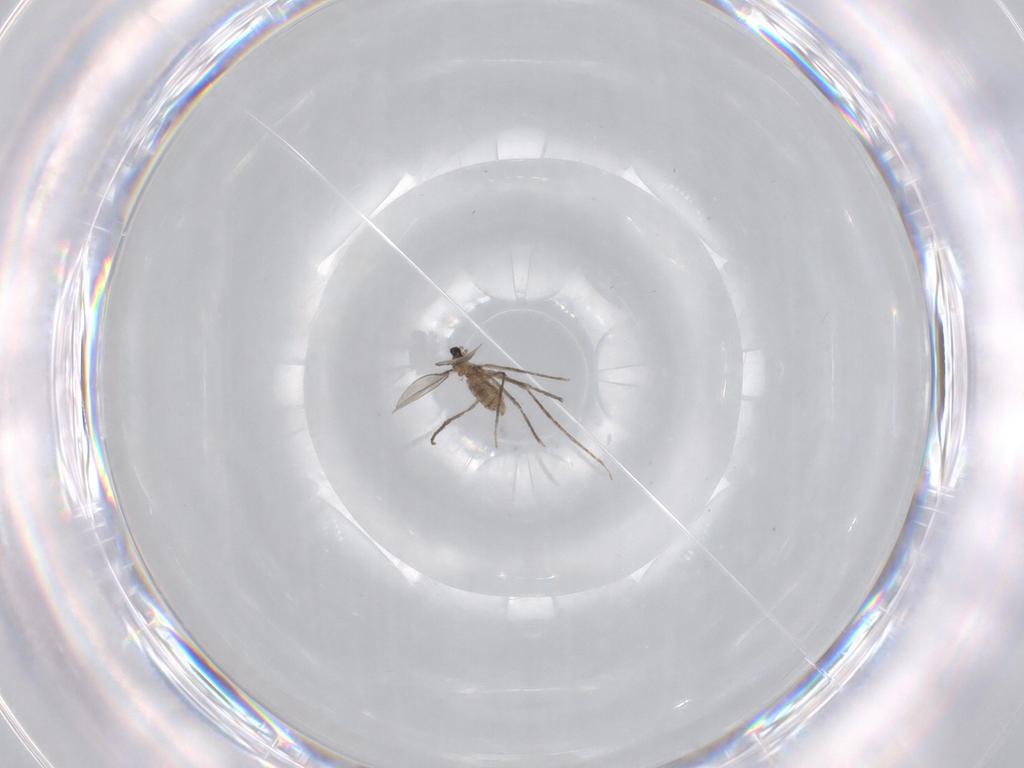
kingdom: Animalia
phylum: Arthropoda
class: Insecta
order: Diptera
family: Cecidomyiidae
